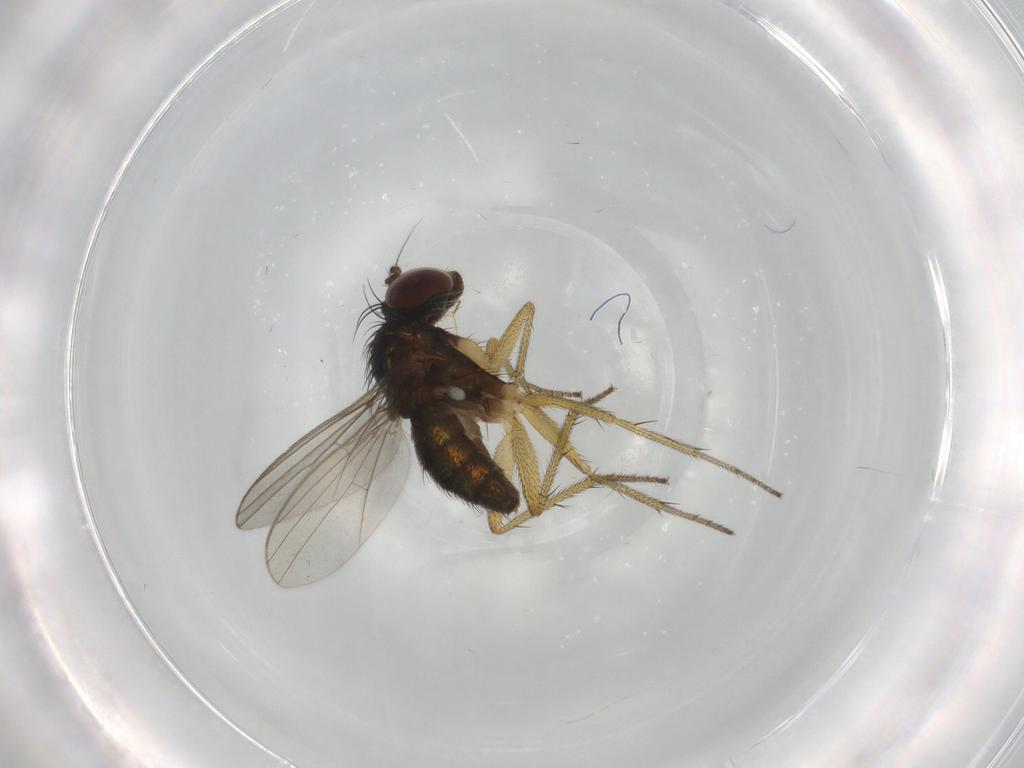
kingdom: Animalia
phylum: Arthropoda
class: Insecta
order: Diptera
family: Dolichopodidae
